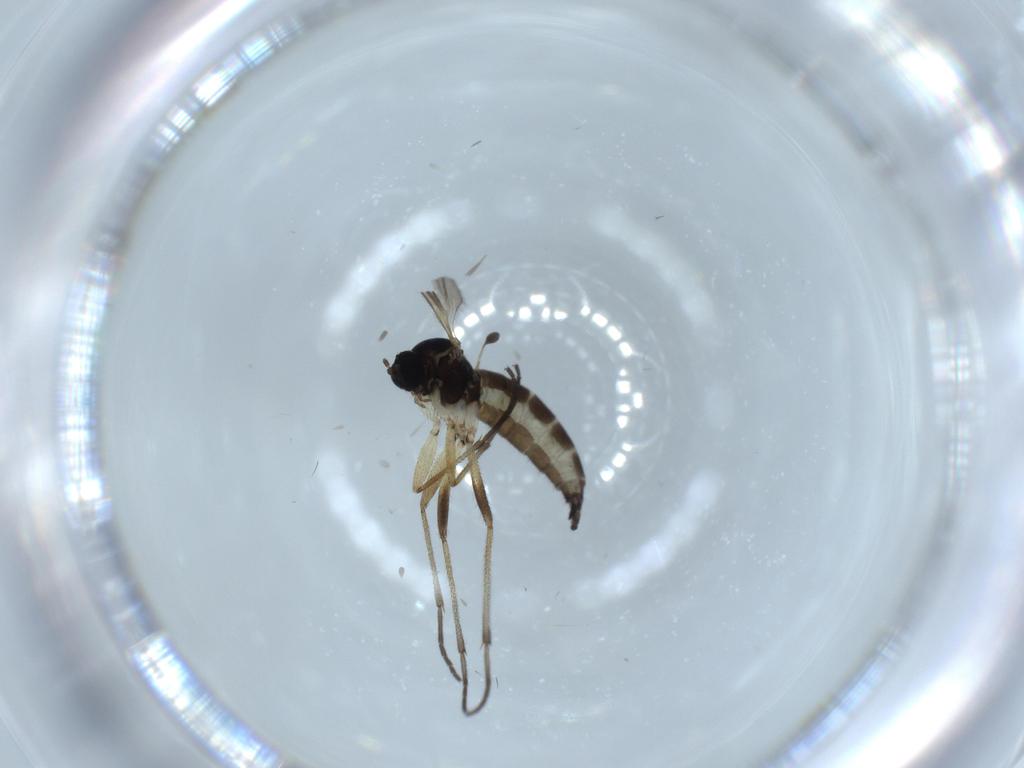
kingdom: Animalia
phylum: Arthropoda
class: Insecta
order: Diptera
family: Sciaridae
